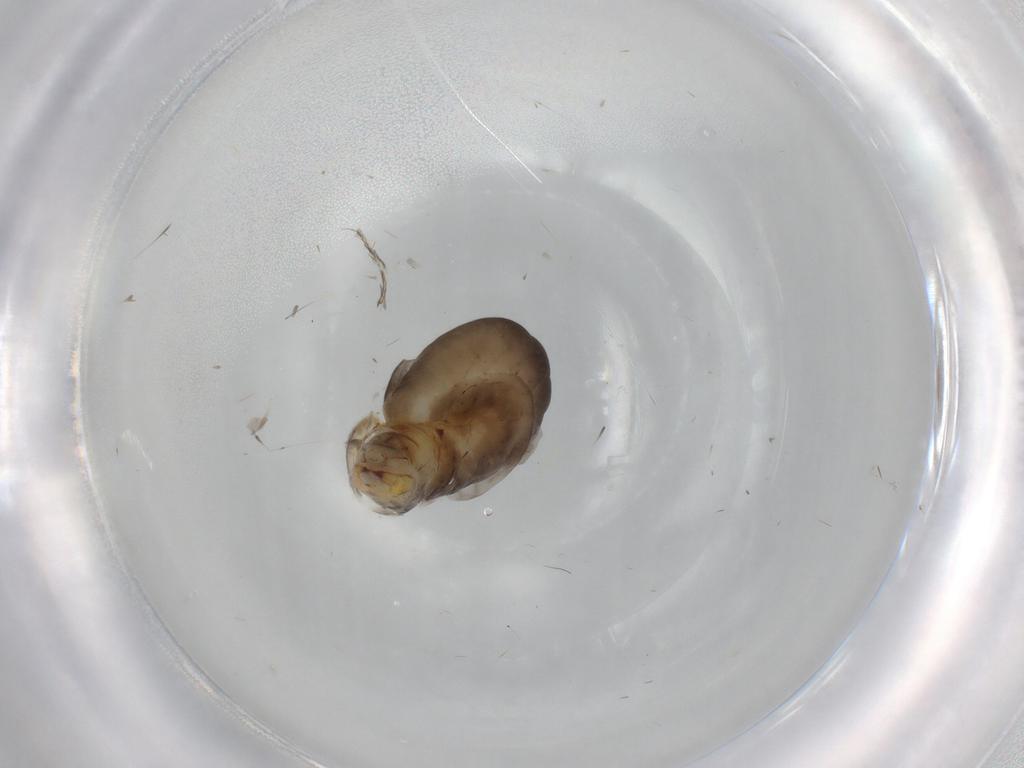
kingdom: Animalia
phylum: Arthropoda
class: Insecta
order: Hymenoptera
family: Dryinidae
